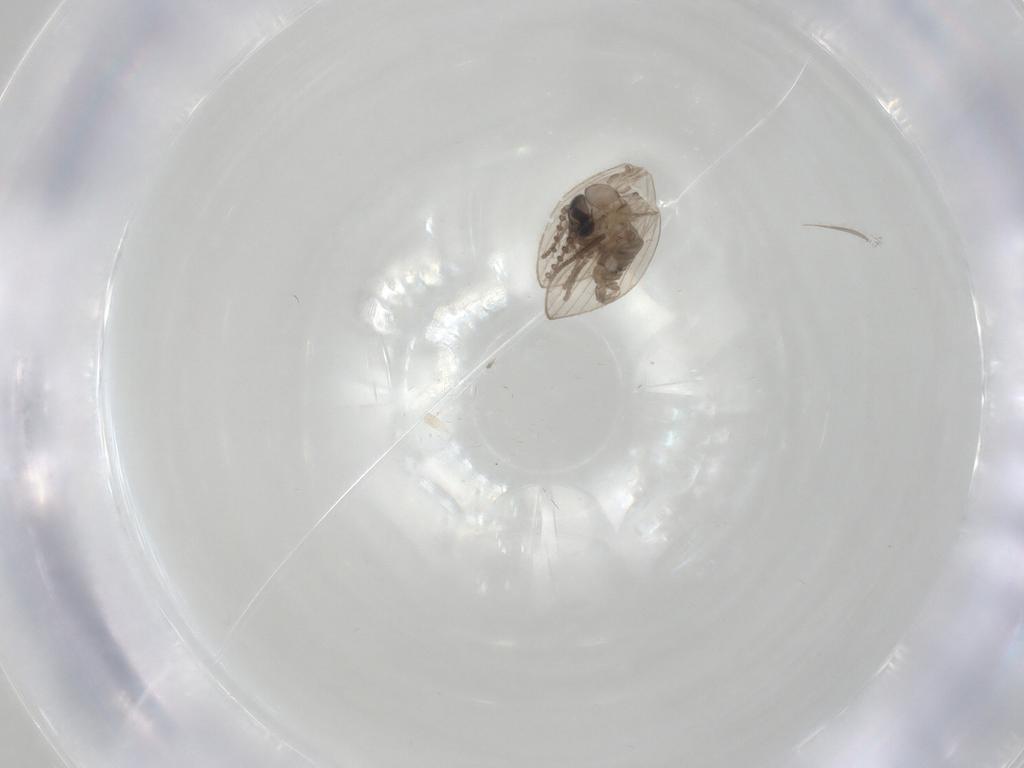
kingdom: Animalia
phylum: Arthropoda
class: Insecta
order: Diptera
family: Psychodidae
